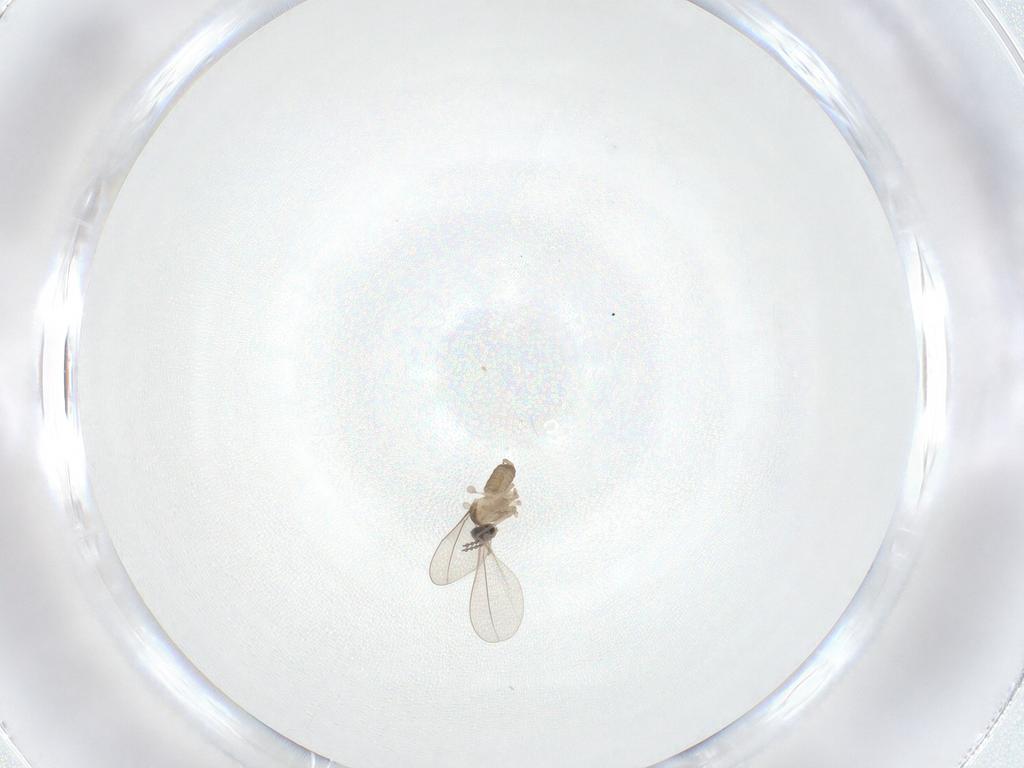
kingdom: Animalia
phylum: Arthropoda
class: Insecta
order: Diptera
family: Cecidomyiidae
